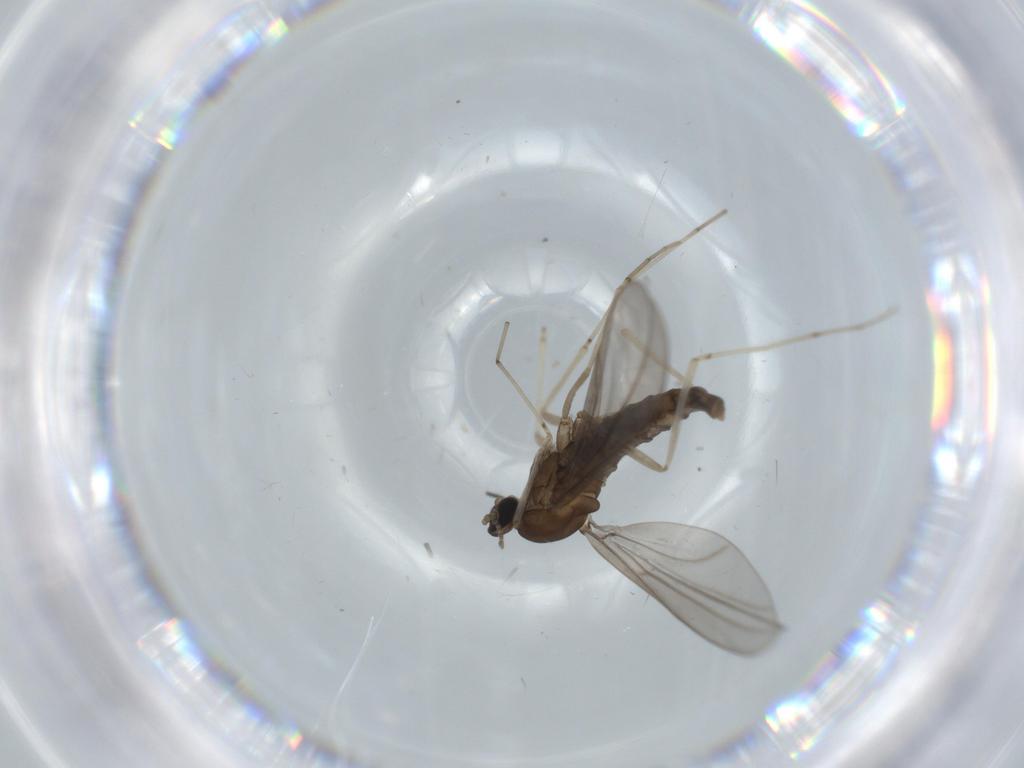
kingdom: Animalia
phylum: Arthropoda
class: Insecta
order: Diptera
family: Cecidomyiidae
